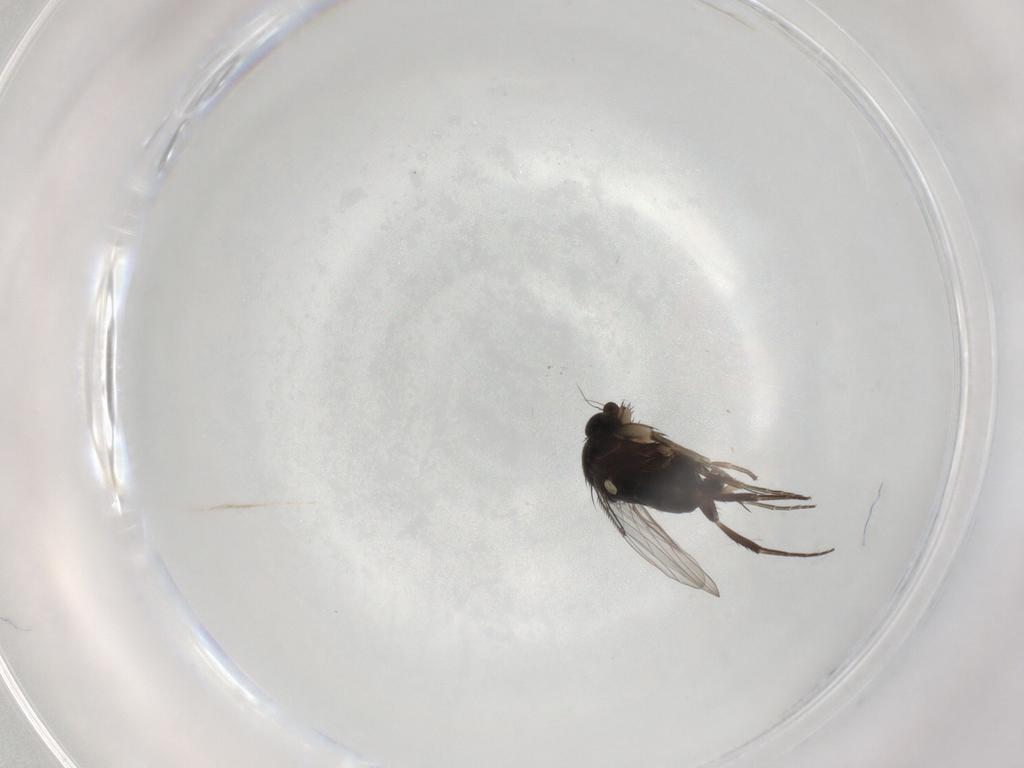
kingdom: Animalia
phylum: Arthropoda
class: Insecta
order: Diptera
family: Phoridae
